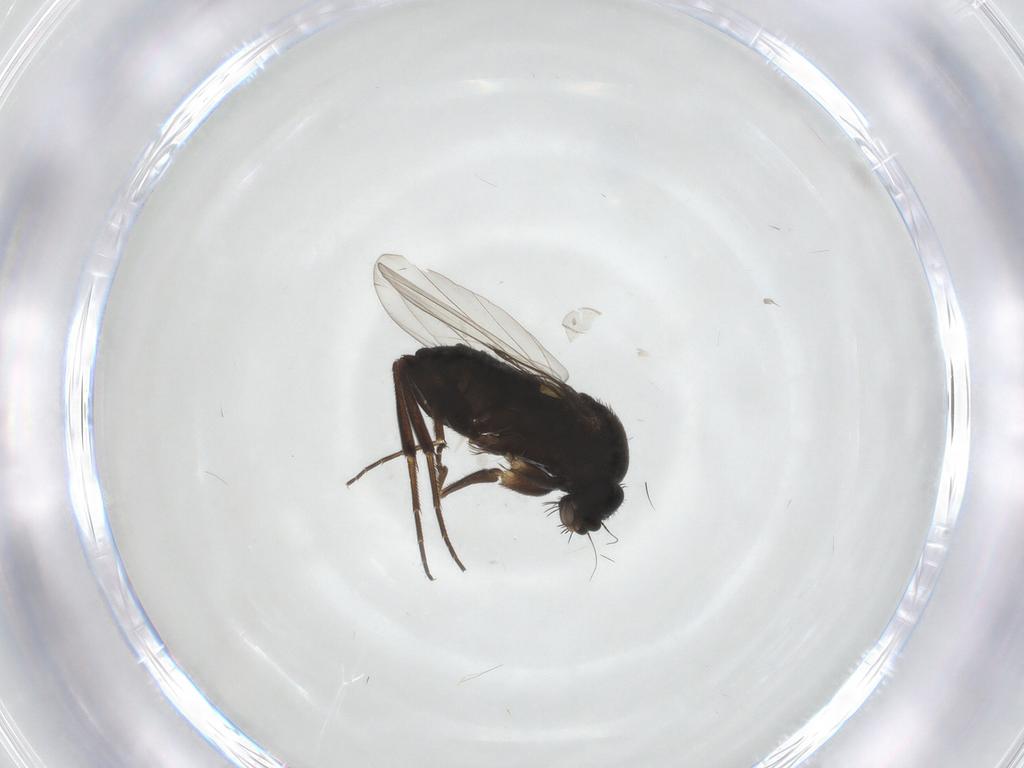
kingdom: Animalia
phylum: Arthropoda
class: Insecta
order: Diptera
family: Phoridae
